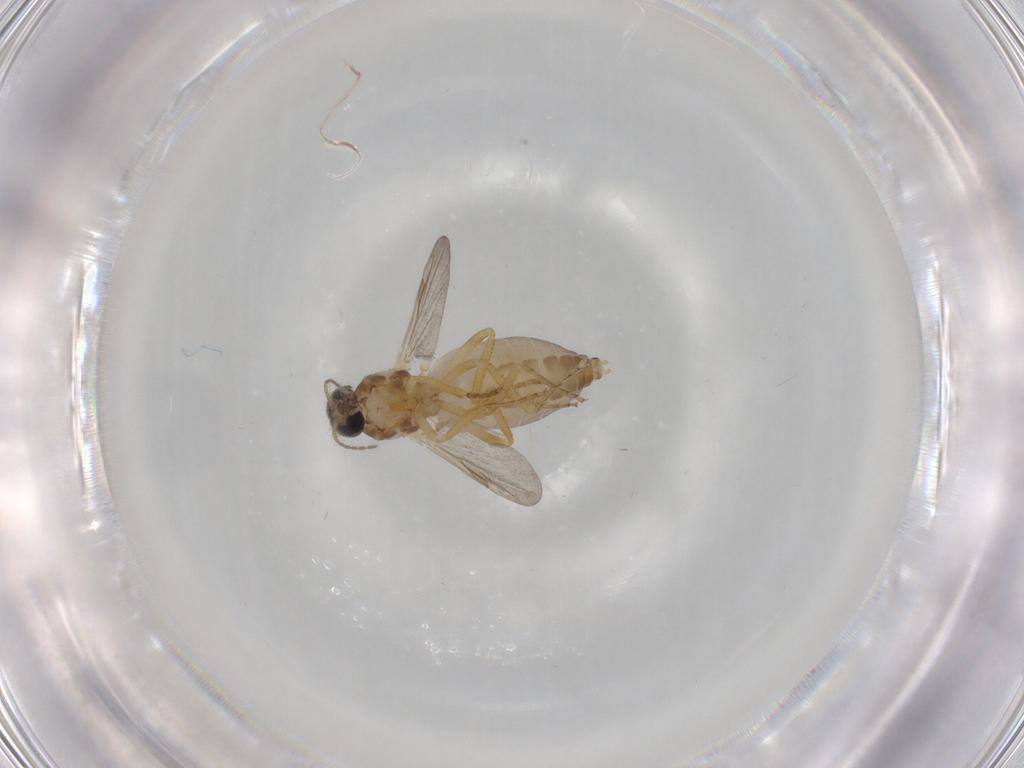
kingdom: Animalia
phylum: Arthropoda
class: Insecta
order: Diptera
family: Ceratopogonidae
